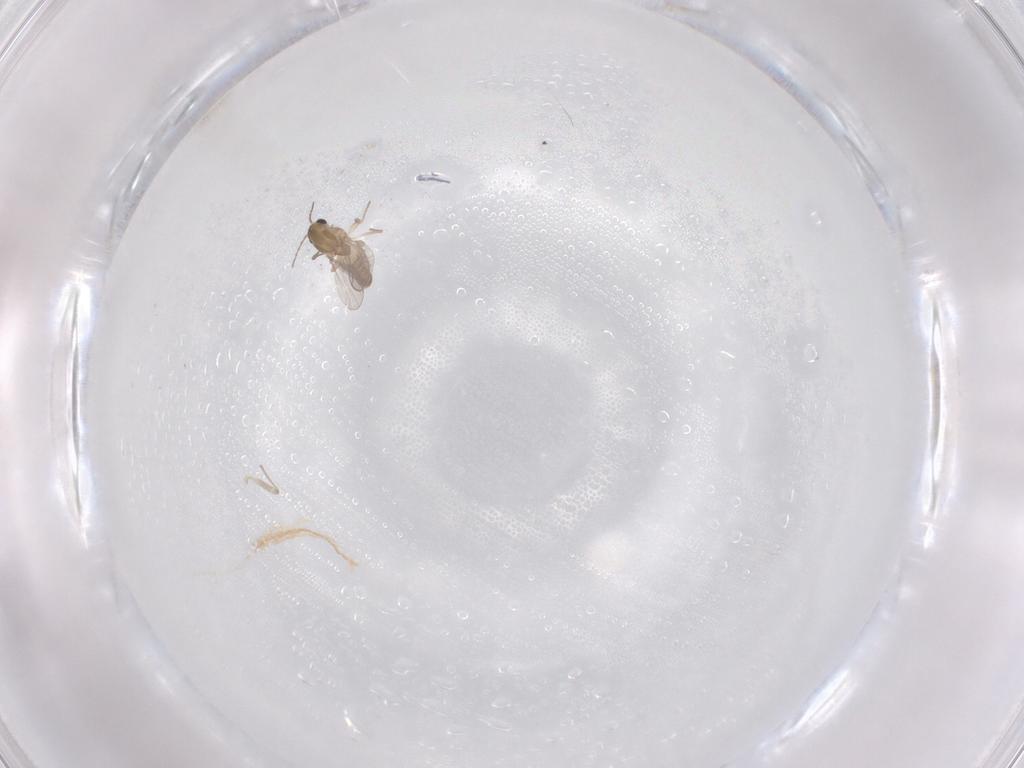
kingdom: Animalia
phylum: Arthropoda
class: Insecta
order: Diptera
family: Chironomidae
